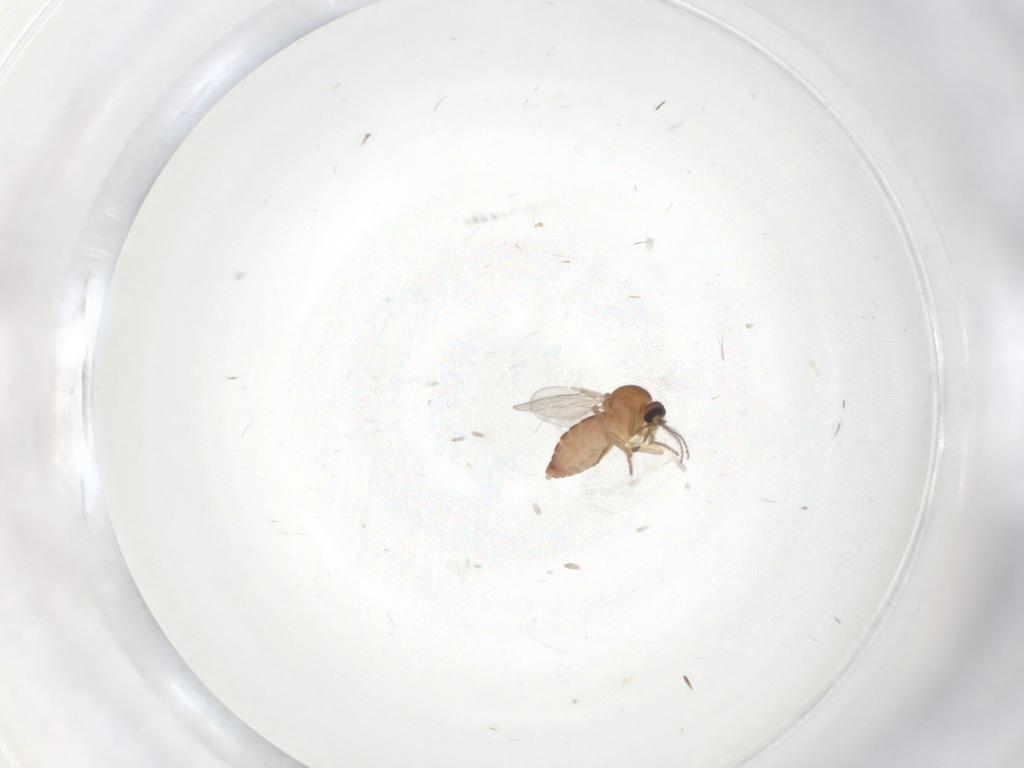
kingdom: Animalia
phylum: Arthropoda
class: Insecta
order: Diptera
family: Ceratopogonidae
